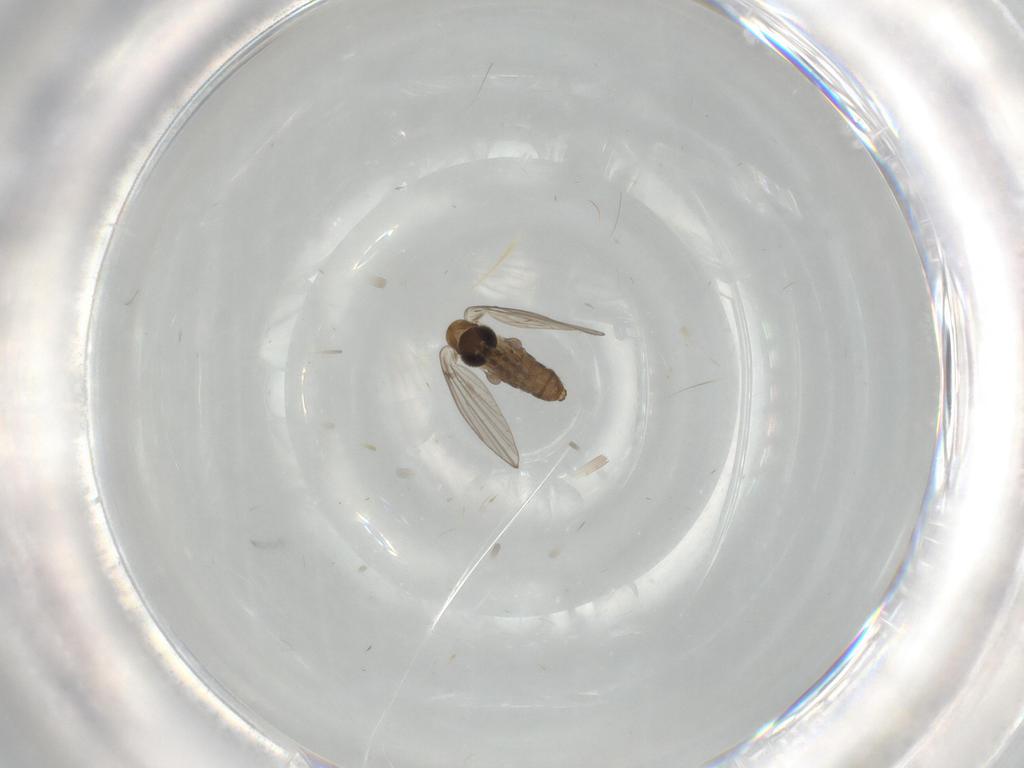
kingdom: Animalia
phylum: Arthropoda
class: Insecta
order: Diptera
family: Psychodidae
